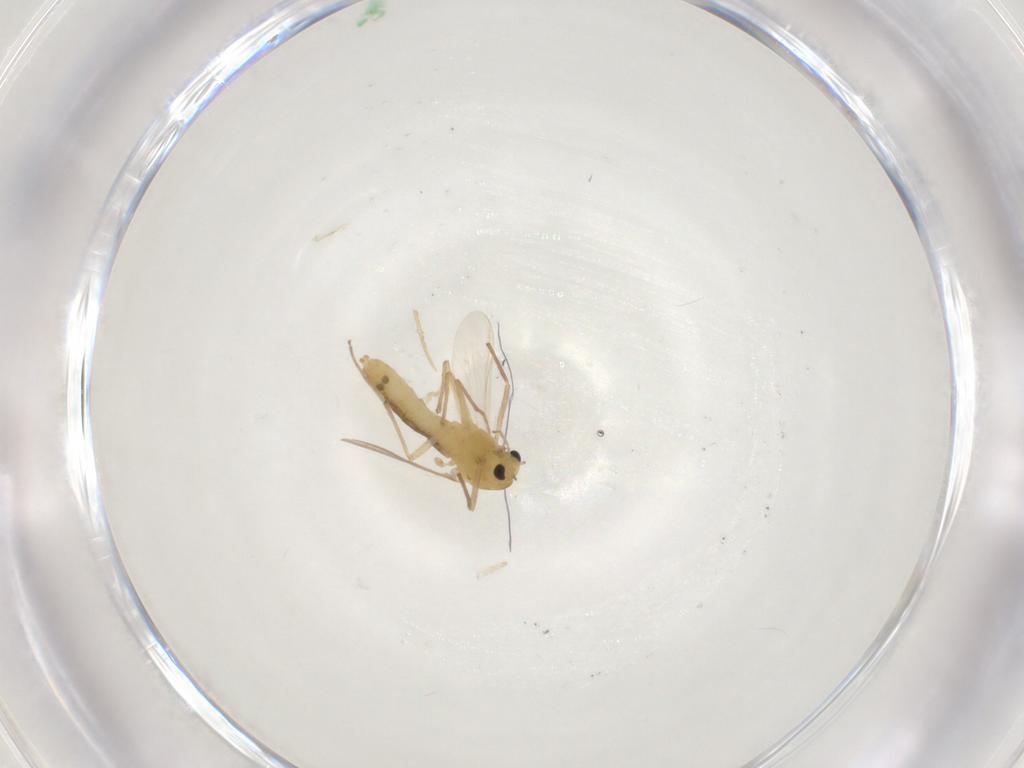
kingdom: Animalia
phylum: Arthropoda
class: Insecta
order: Diptera
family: Chironomidae
